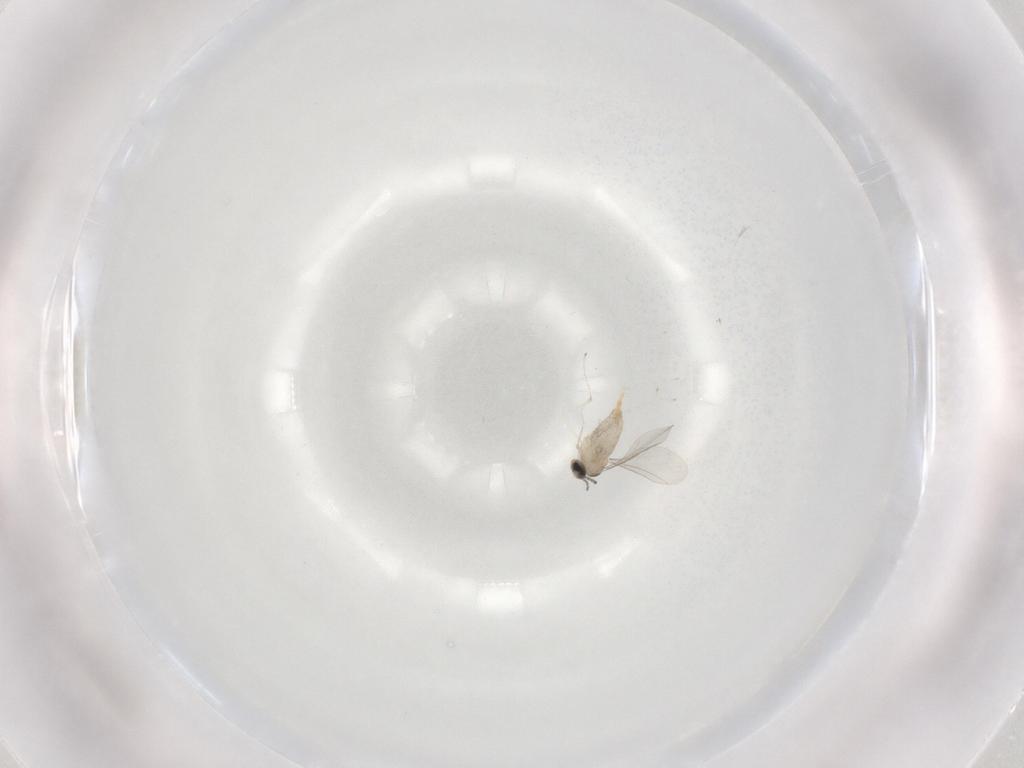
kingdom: Animalia
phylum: Arthropoda
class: Insecta
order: Diptera
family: Cecidomyiidae
